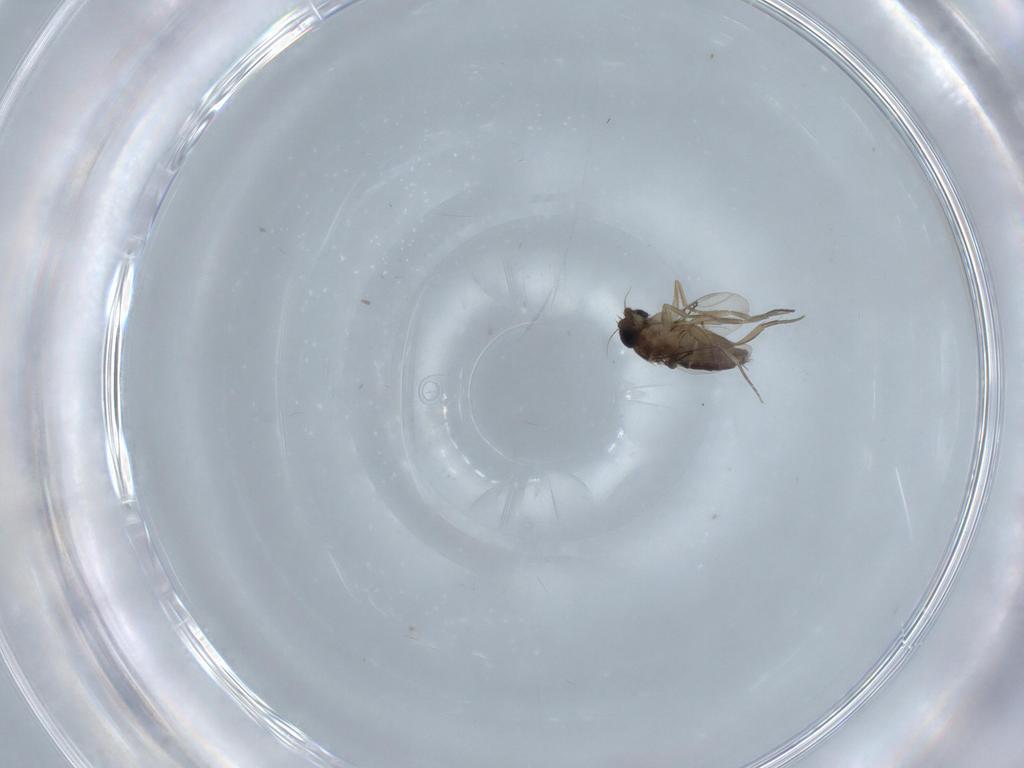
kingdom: Animalia
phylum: Arthropoda
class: Insecta
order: Diptera
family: Phoridae
